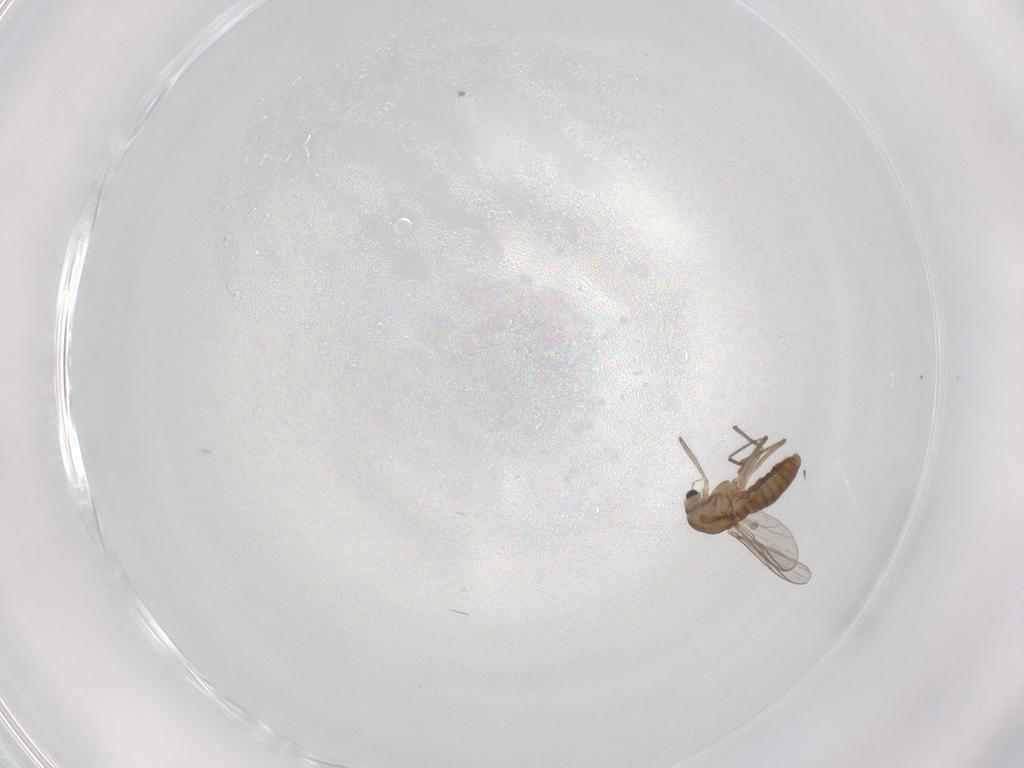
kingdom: Animalia
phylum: Arthropoda
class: Insecta
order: Diptera
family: Chironomidae
